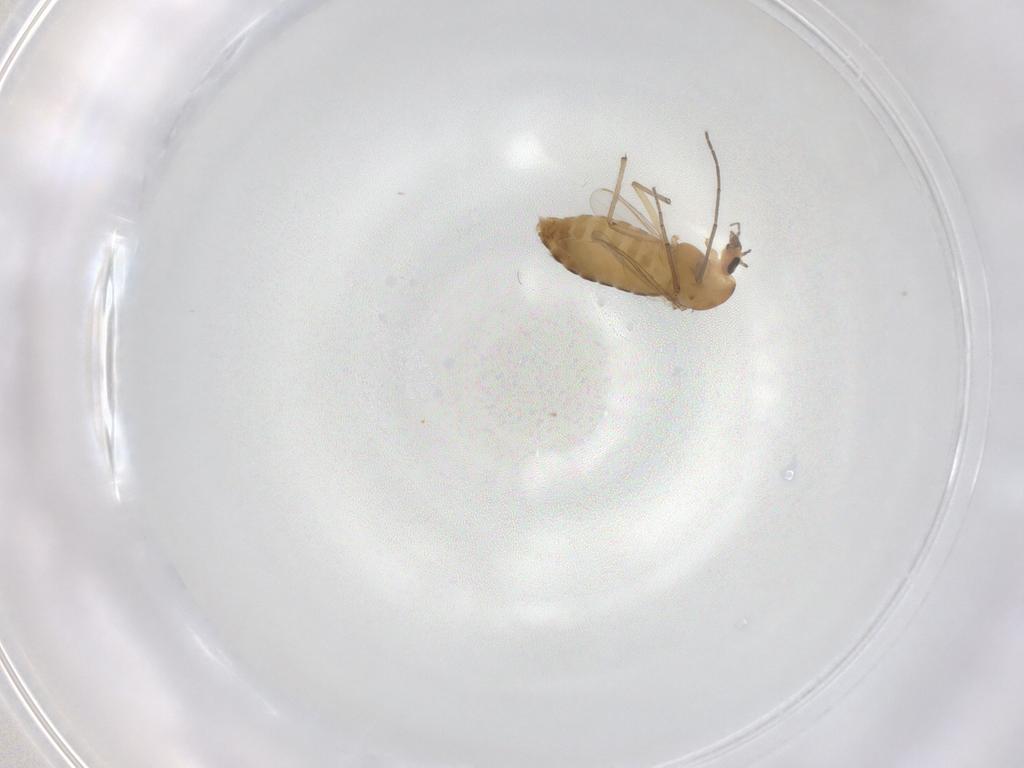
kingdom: Animalia
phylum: Arthropoda
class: Insecta
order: Diptera
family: Chironomidae
